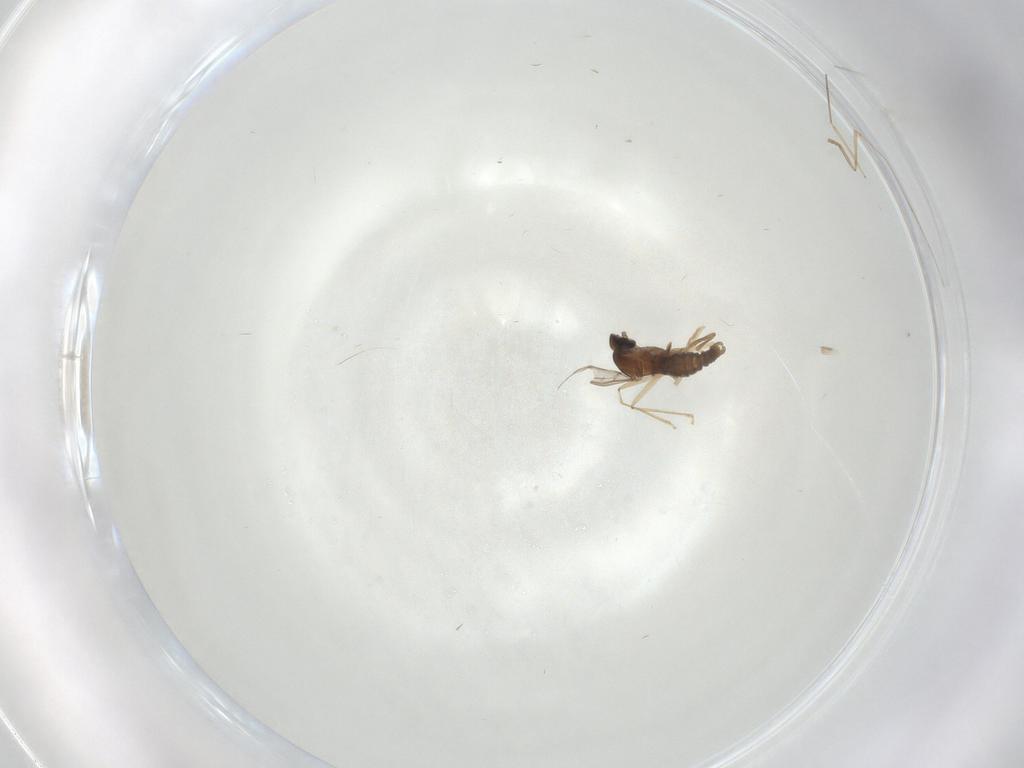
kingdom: Animalia
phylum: Arthropoda
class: Insecta
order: Diptera
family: Cecidomyiidae
